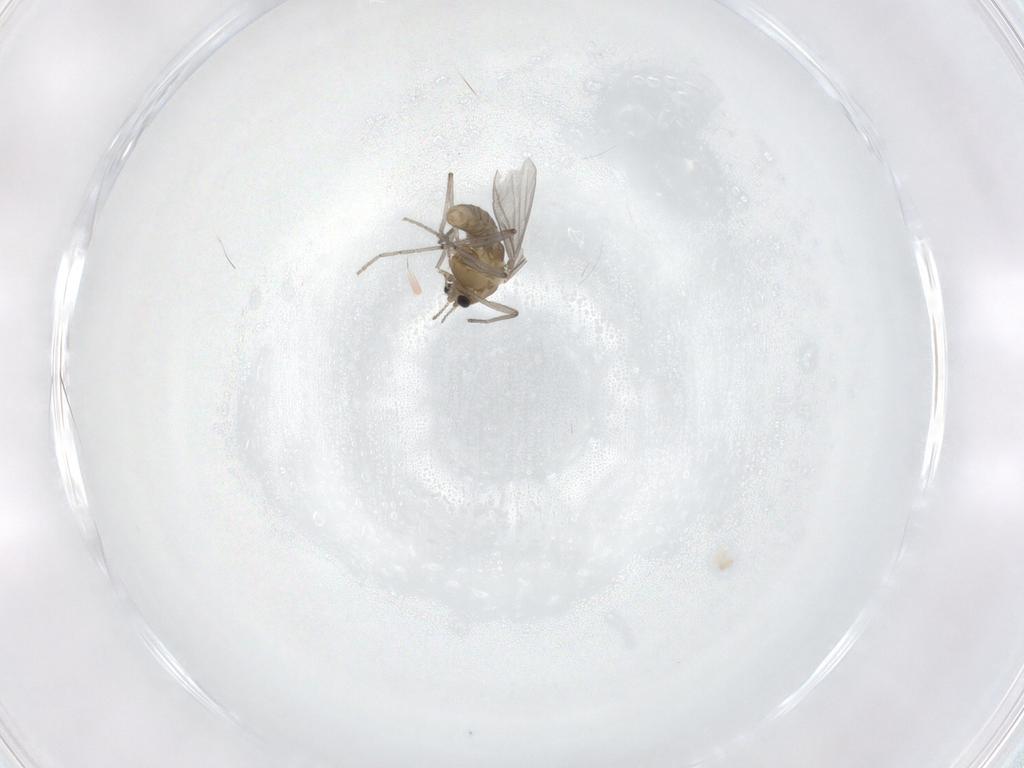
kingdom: Animalia
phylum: Arthropoda
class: Insecta
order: Diptera
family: Chironomidae
